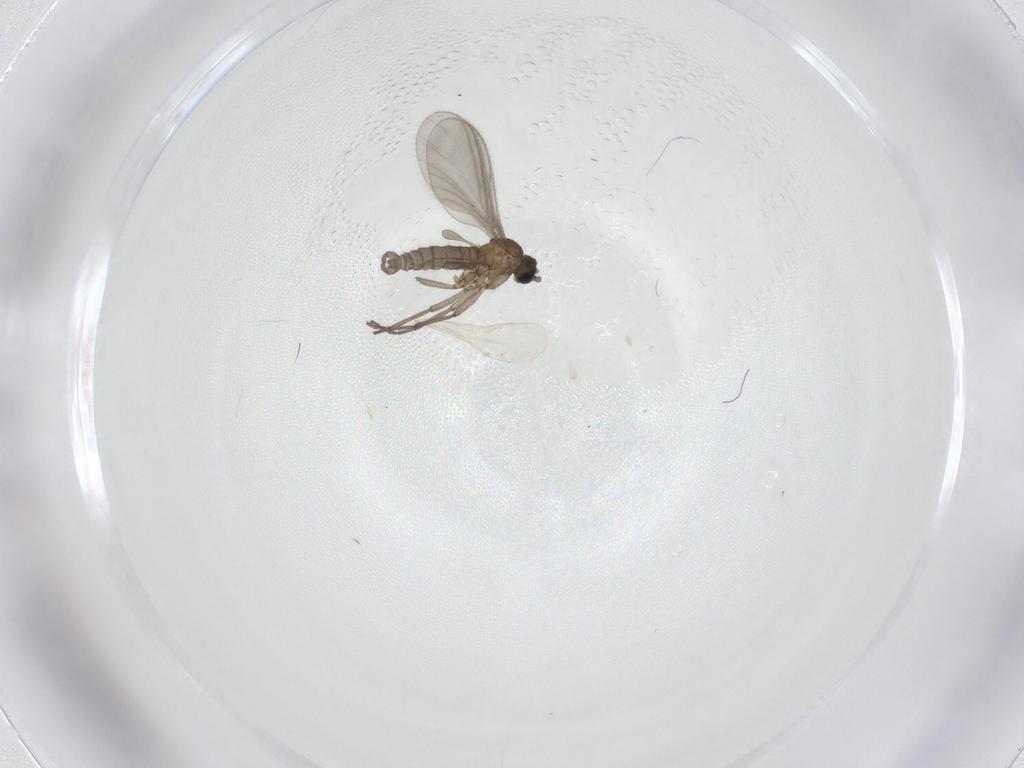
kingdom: Animalia
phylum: Arthropoda
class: Insecta
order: Diptera
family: Sciaridae
